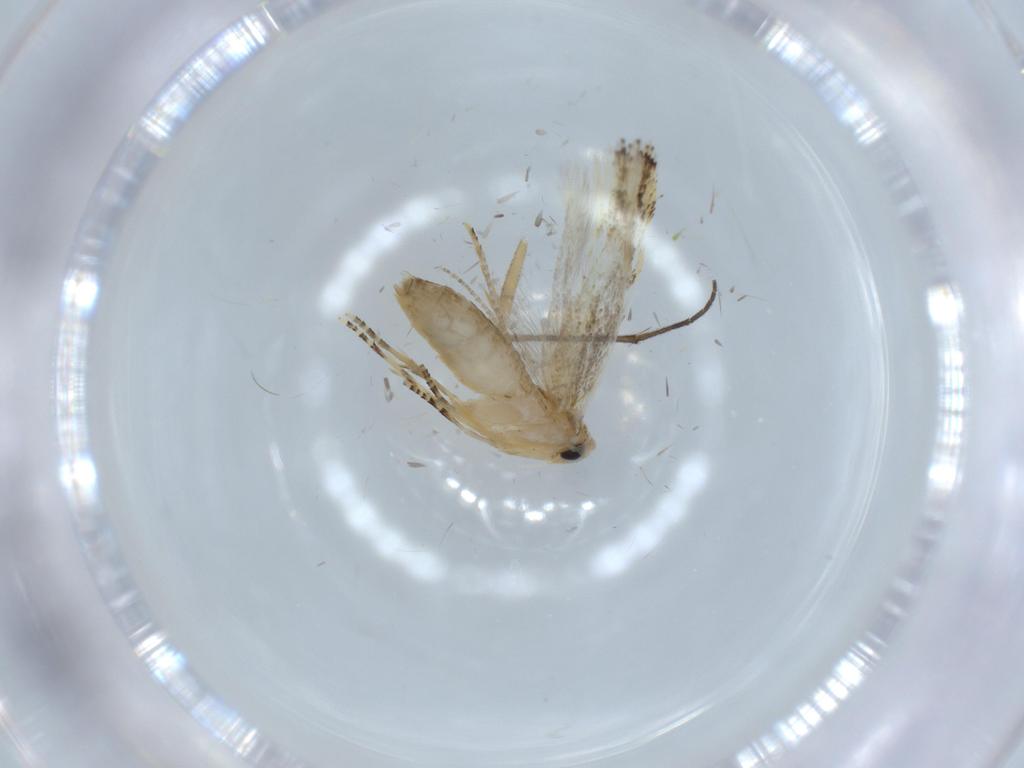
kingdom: Animalia
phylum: Arthropoda
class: Insecta
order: Lepidoptera
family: Bucculatricidae
